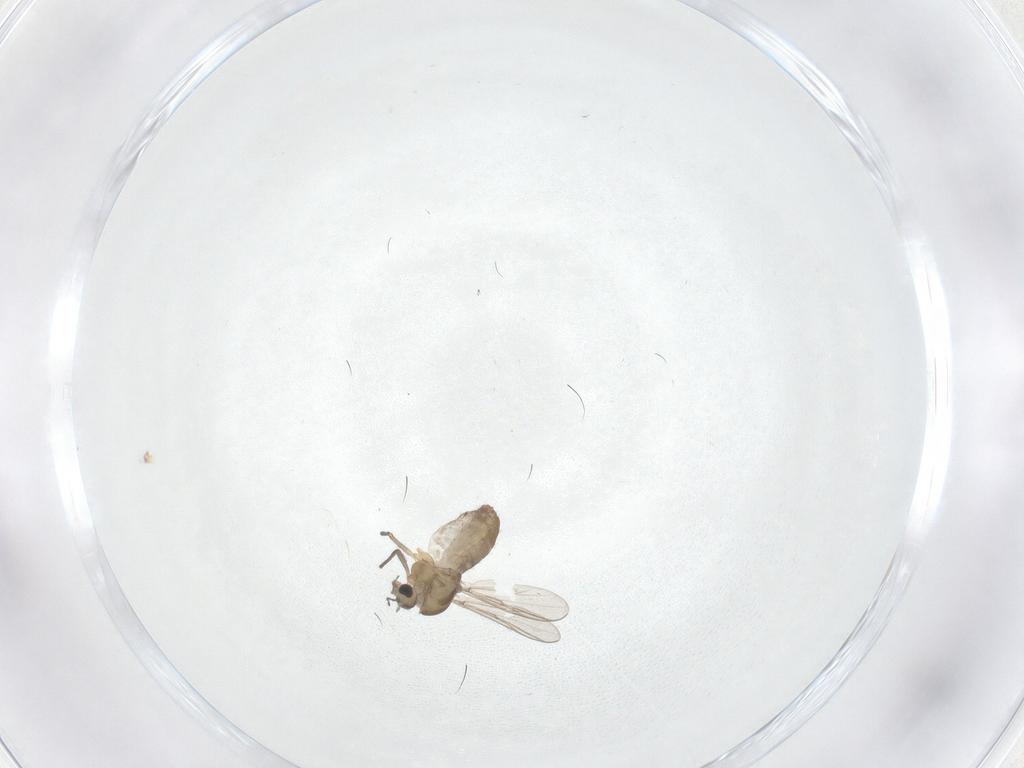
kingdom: Animalia
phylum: Arthropoda
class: Insecta
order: Diptera
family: Chironomidae
